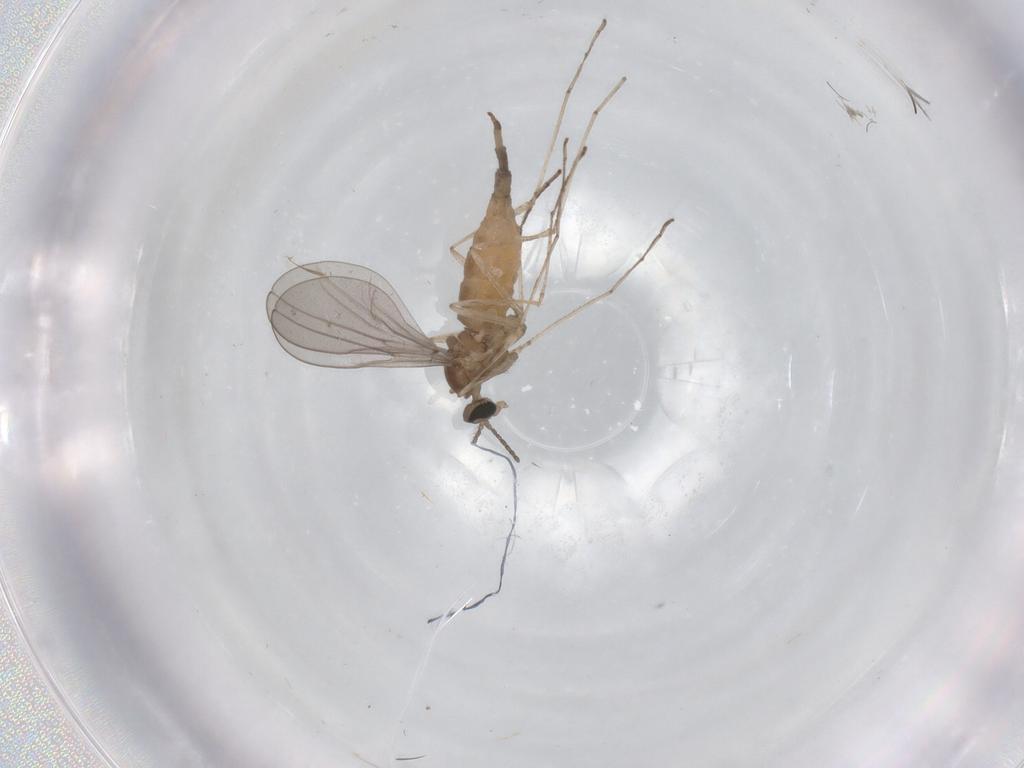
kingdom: Animalia
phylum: Arthropoda
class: Insecta
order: Diptera
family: Cecidomyiidae
